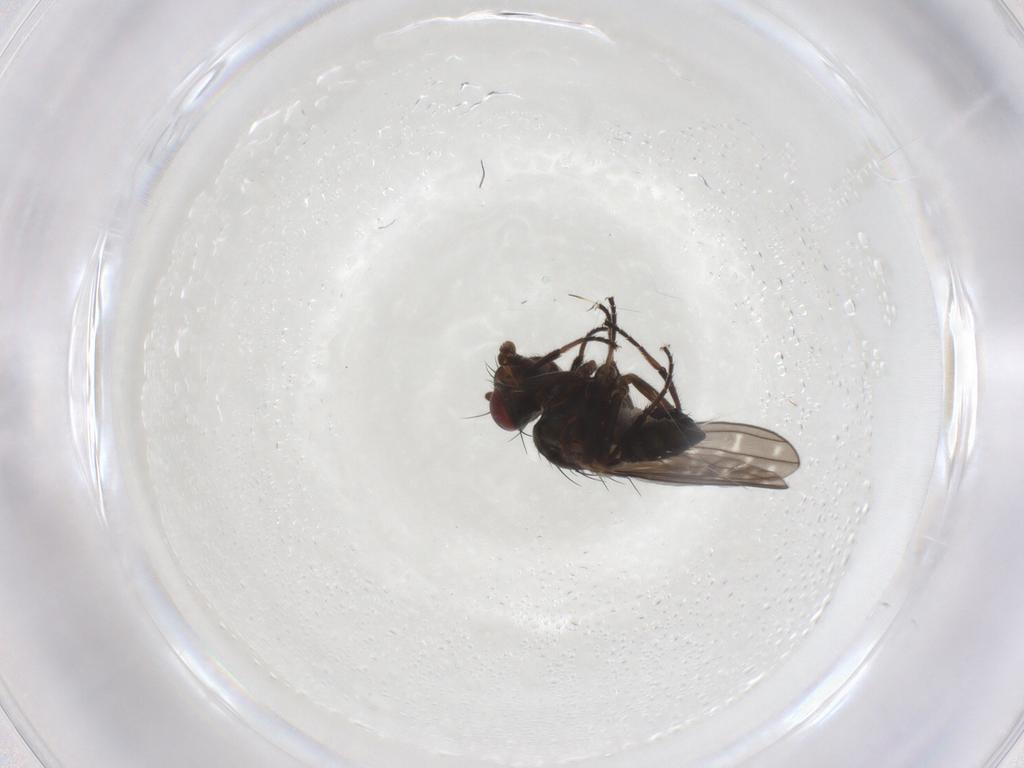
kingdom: Animalia
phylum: Arthropoda
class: Insecta
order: Diptera
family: Ephydridae
